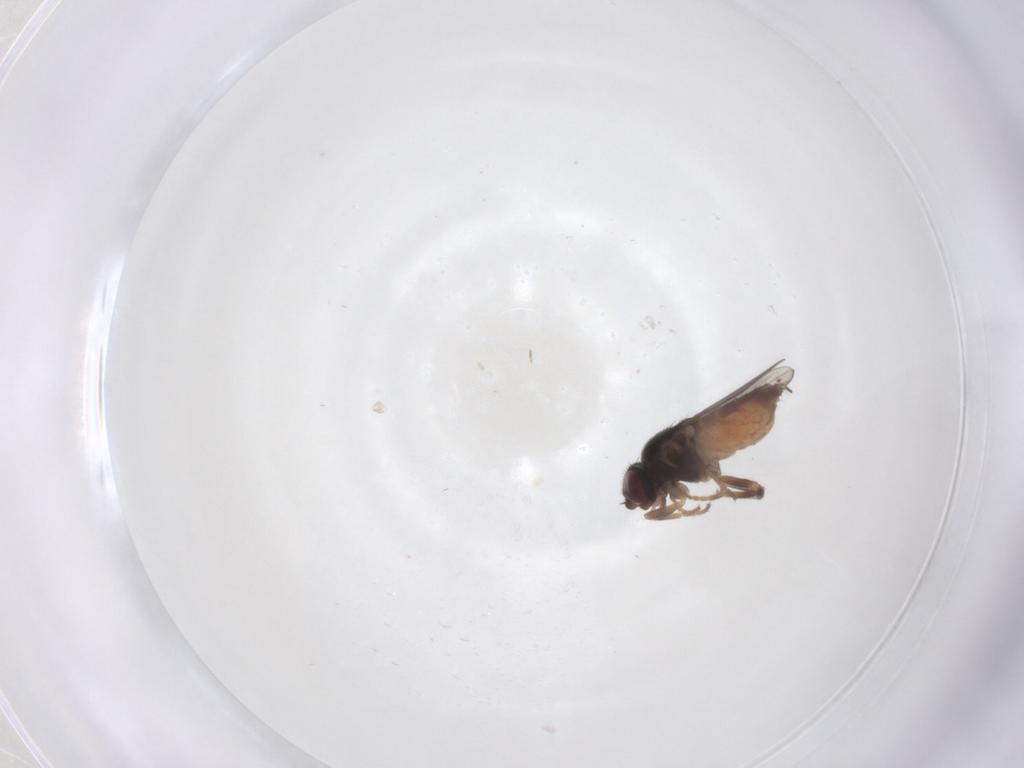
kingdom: Animalia
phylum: Arthropoda
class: Insecta
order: Diptera
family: Chloropidae
